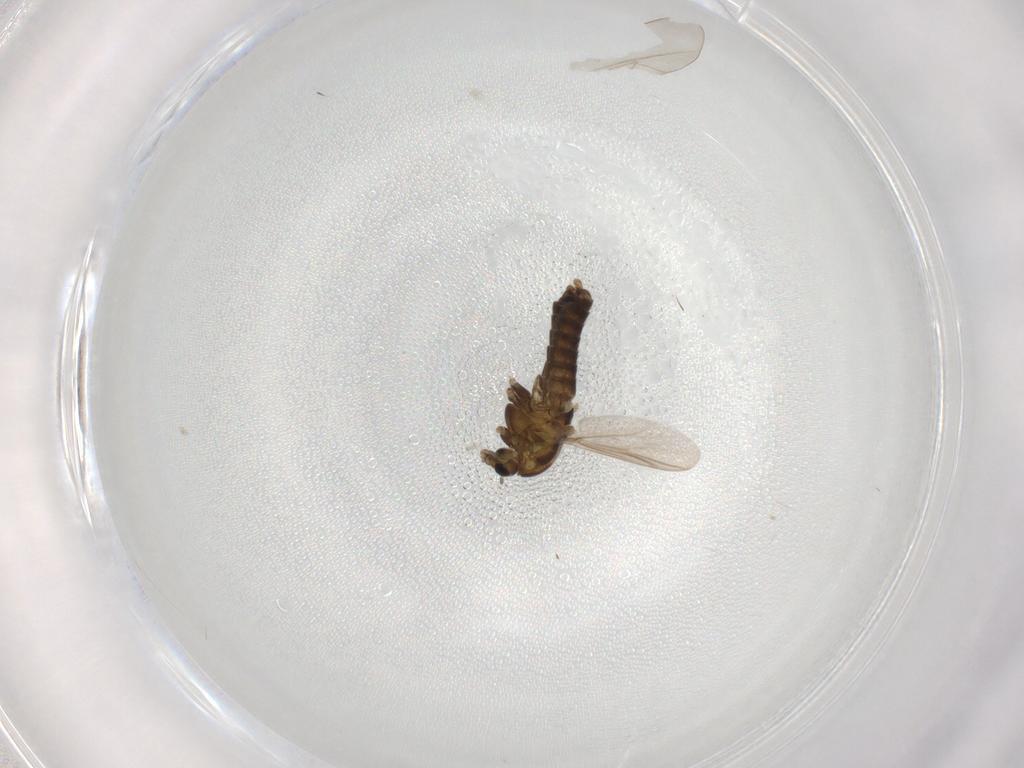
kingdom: Animalia
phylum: Arthropoda
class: Insecta
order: Diptera
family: Chironomidae
